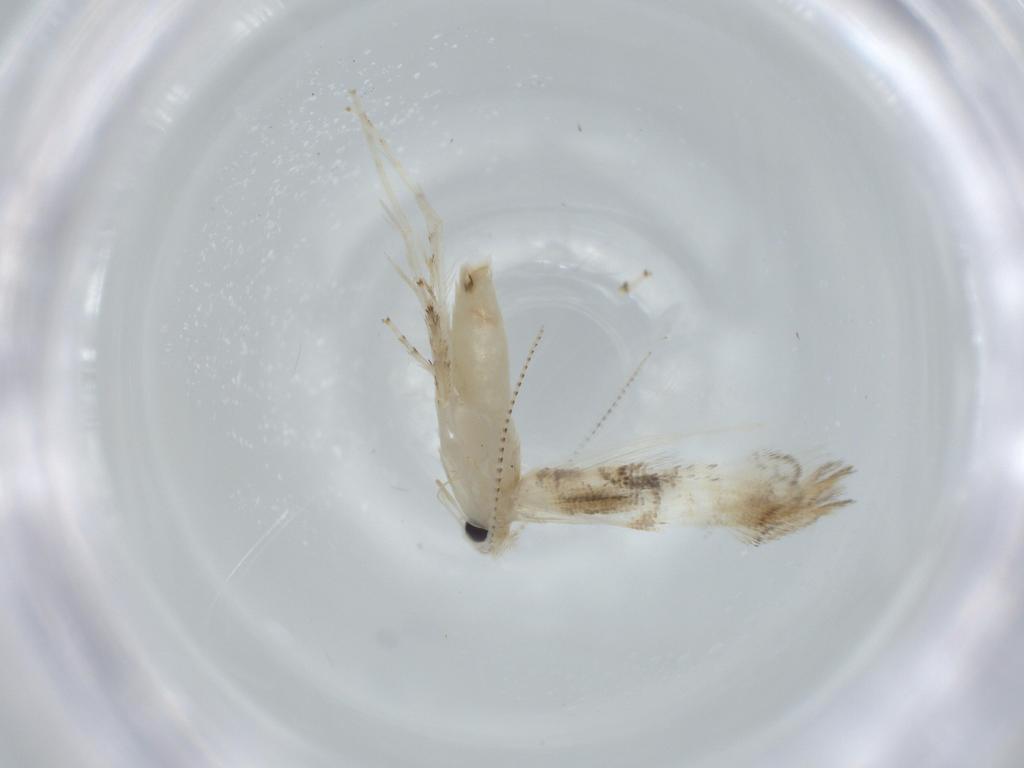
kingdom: Animalia
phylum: Arthropoda
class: Insecta
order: Lepidoptera
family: Gracillariidae
